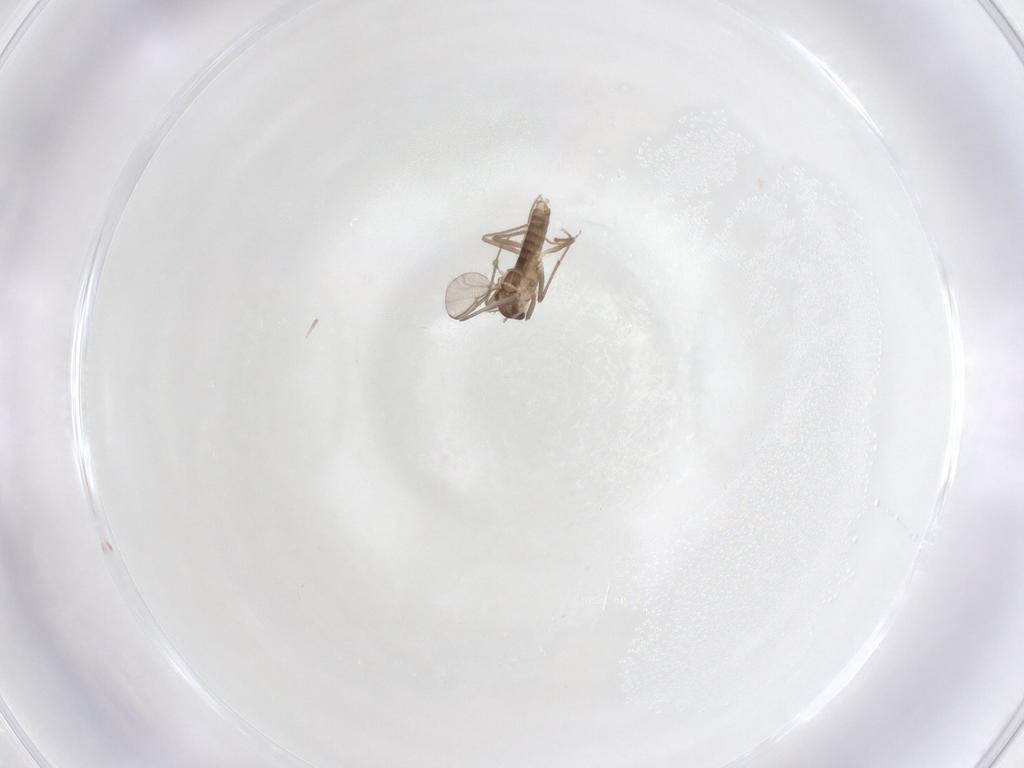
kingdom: Animalia
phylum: Arthropoda
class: Insecta
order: Diptera
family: Chironomidae
